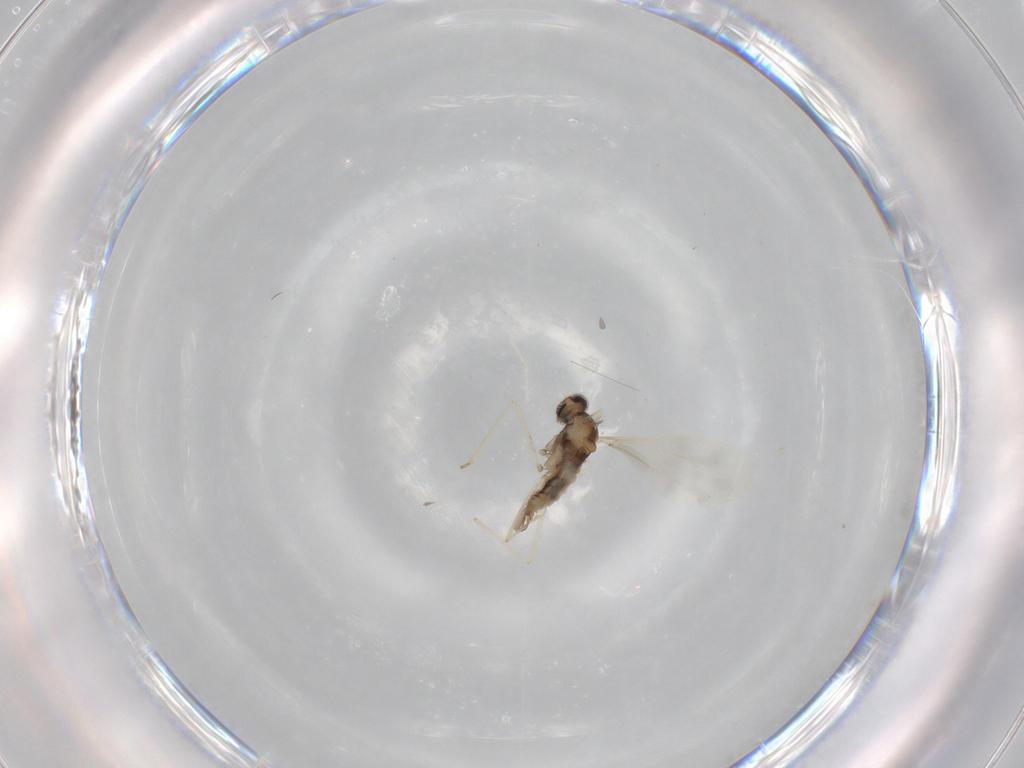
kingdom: Animalia
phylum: Arthropoda
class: Insecta
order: Diptera
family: Cecidomyiidae
